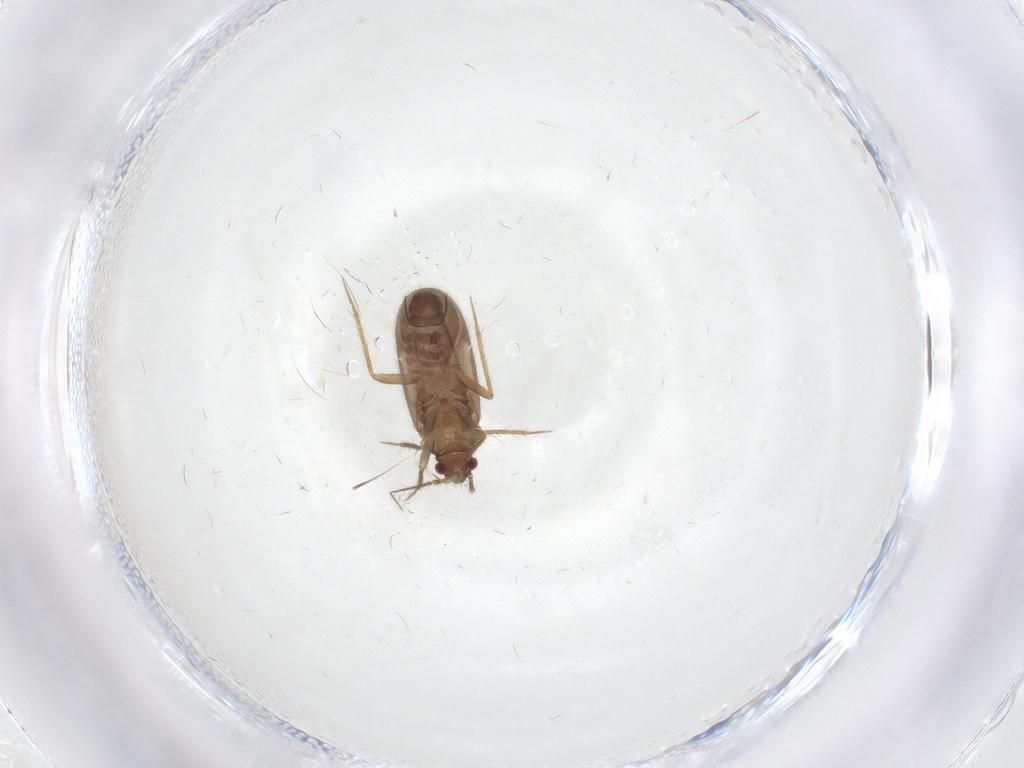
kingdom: Animalia
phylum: Arthropoda
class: Insecta
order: Hemiptera
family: Ceratocombidae
